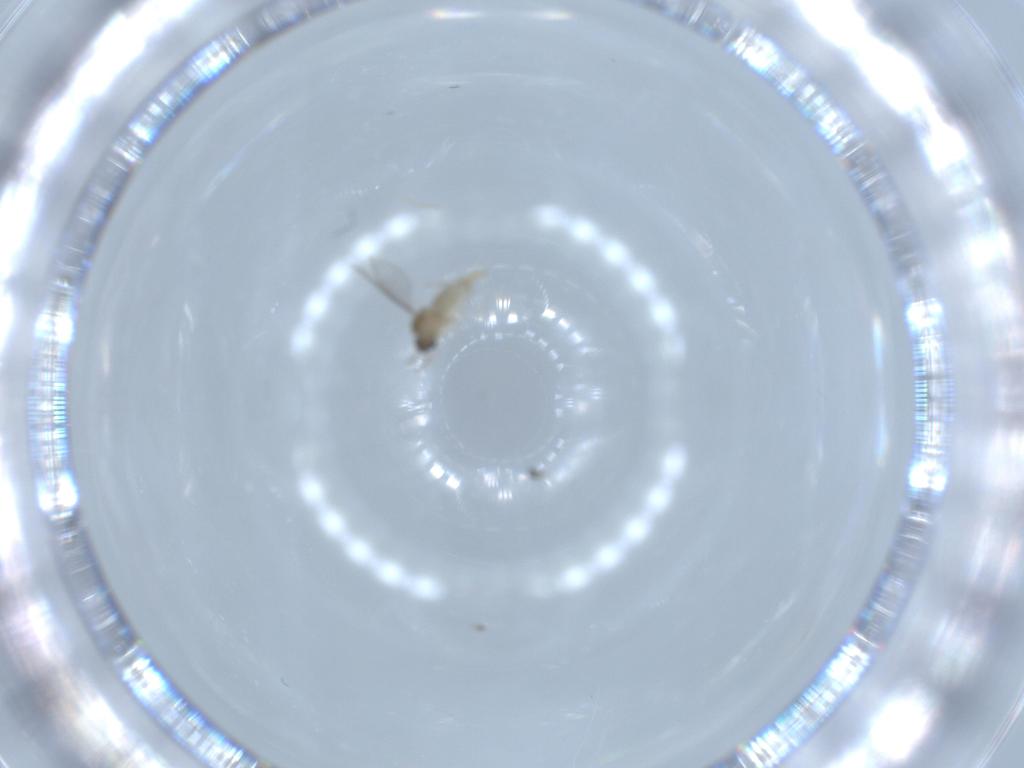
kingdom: Animalia
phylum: Arthropoda
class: Insecta
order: Diptera
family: Cecidomyiidae
